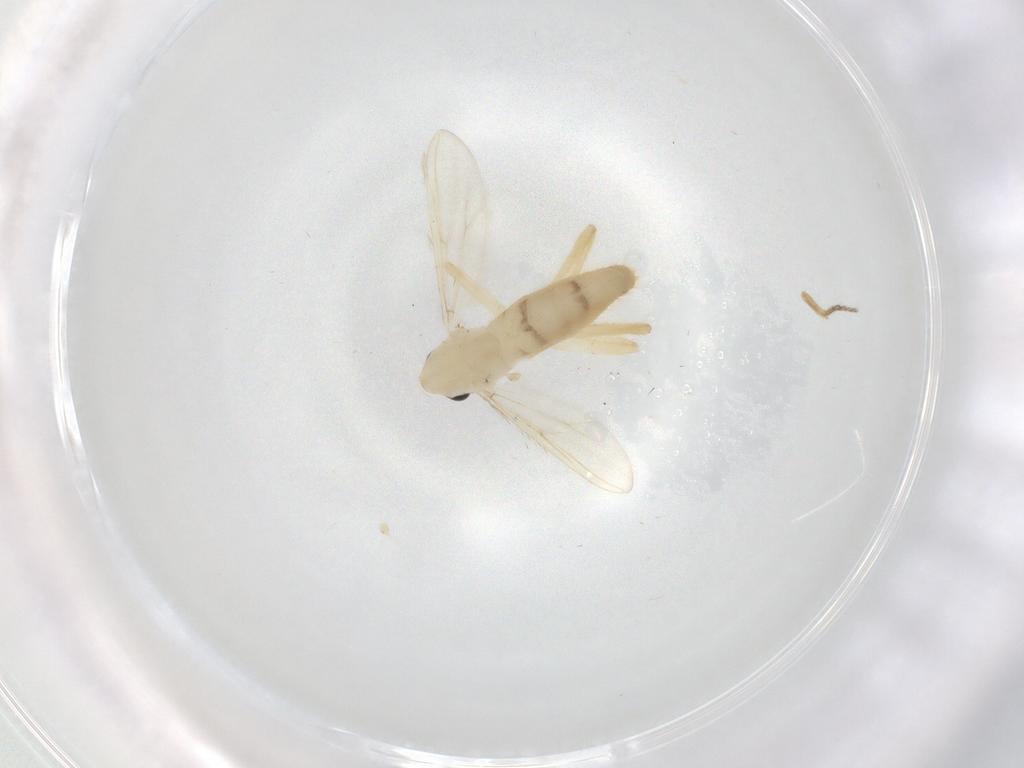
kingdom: Animalia
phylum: Arthropoda
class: Insecta
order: Diptera
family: Chironomidae
